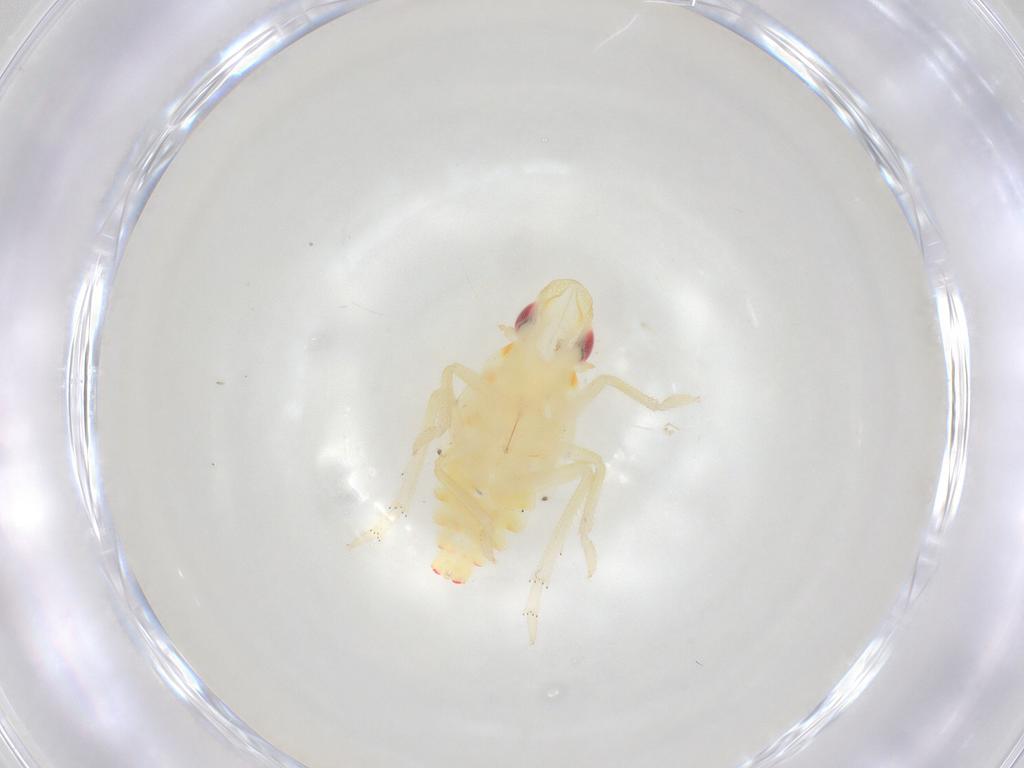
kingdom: Animalia
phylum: Arthropoda
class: Insecta
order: Hemiptera
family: Tropiduchidae
